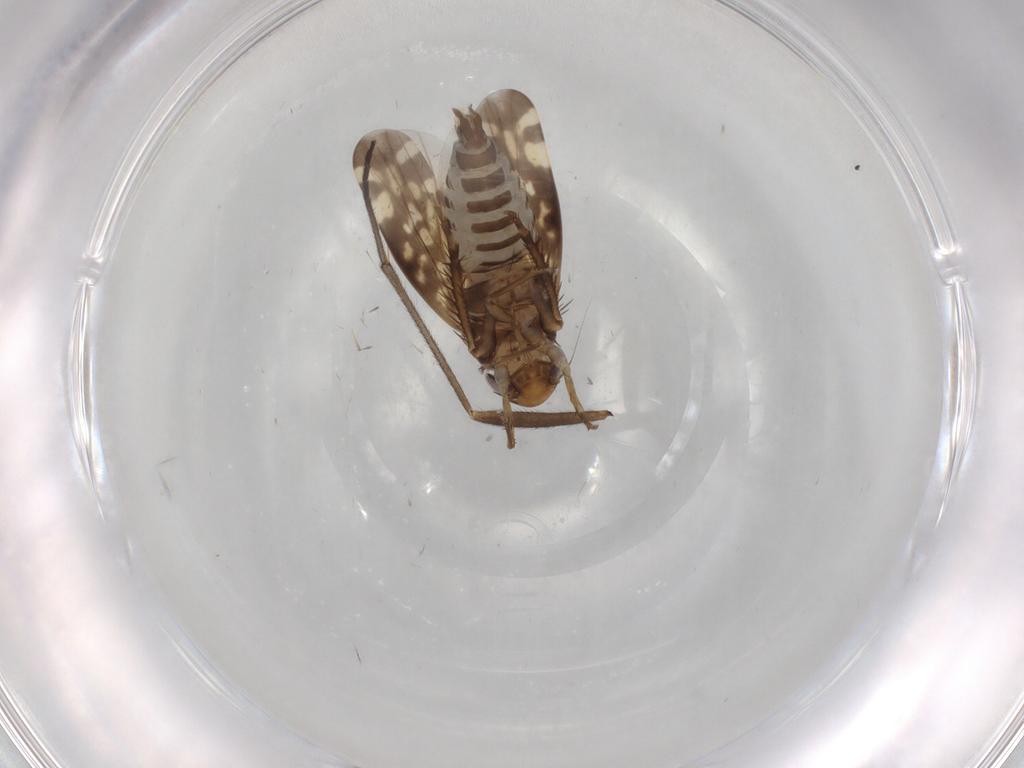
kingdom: Animalia
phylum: Arthropoda
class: Insecta
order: Hemiptera
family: Cicadellidae
